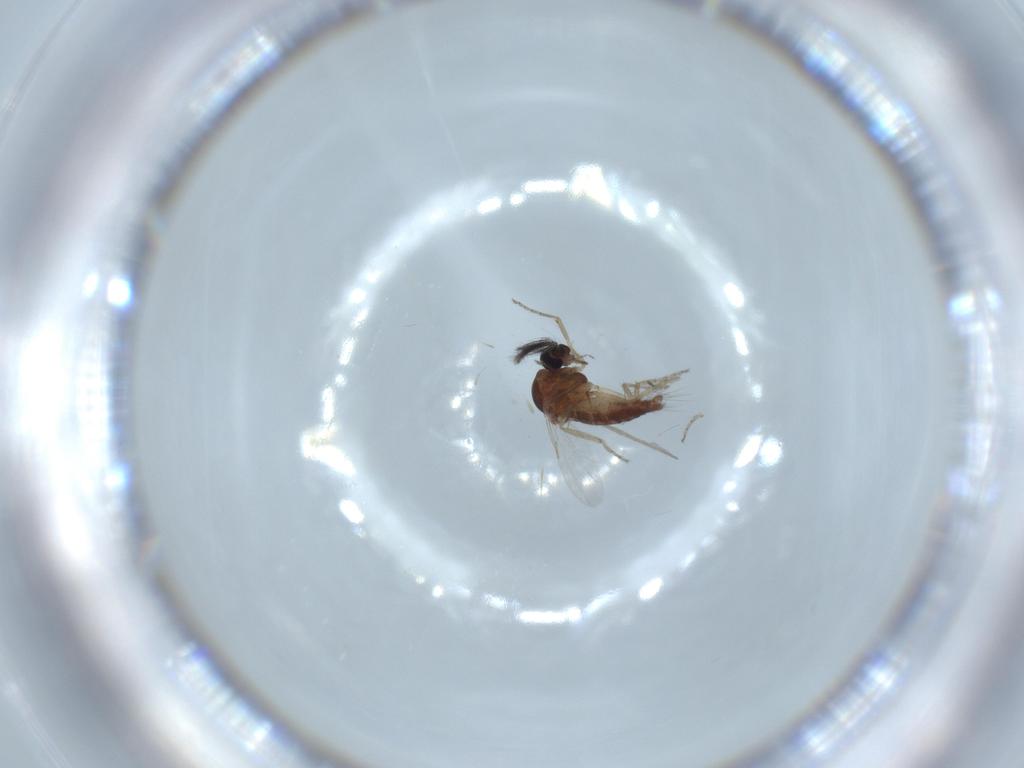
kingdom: Animalia
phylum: Arthropoda
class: Insecta
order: Diptera
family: Ceratopogonidae
